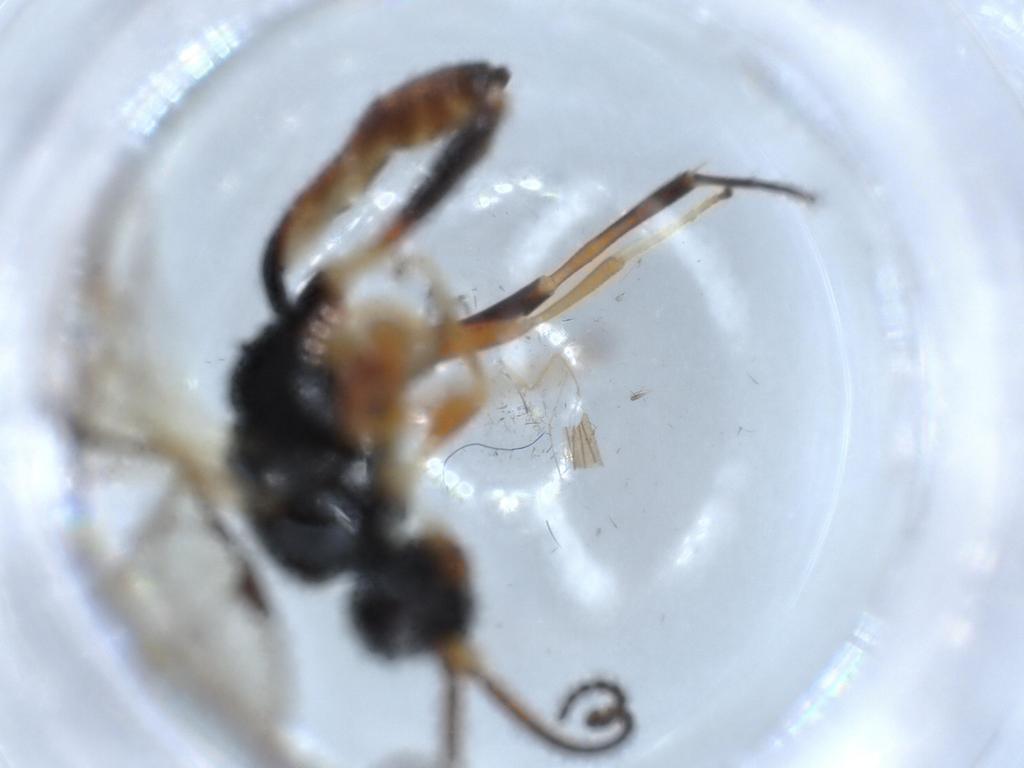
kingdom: Animalia
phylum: Arthropoda
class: Insecta
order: Hymenoptera
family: Ichneumonidae
